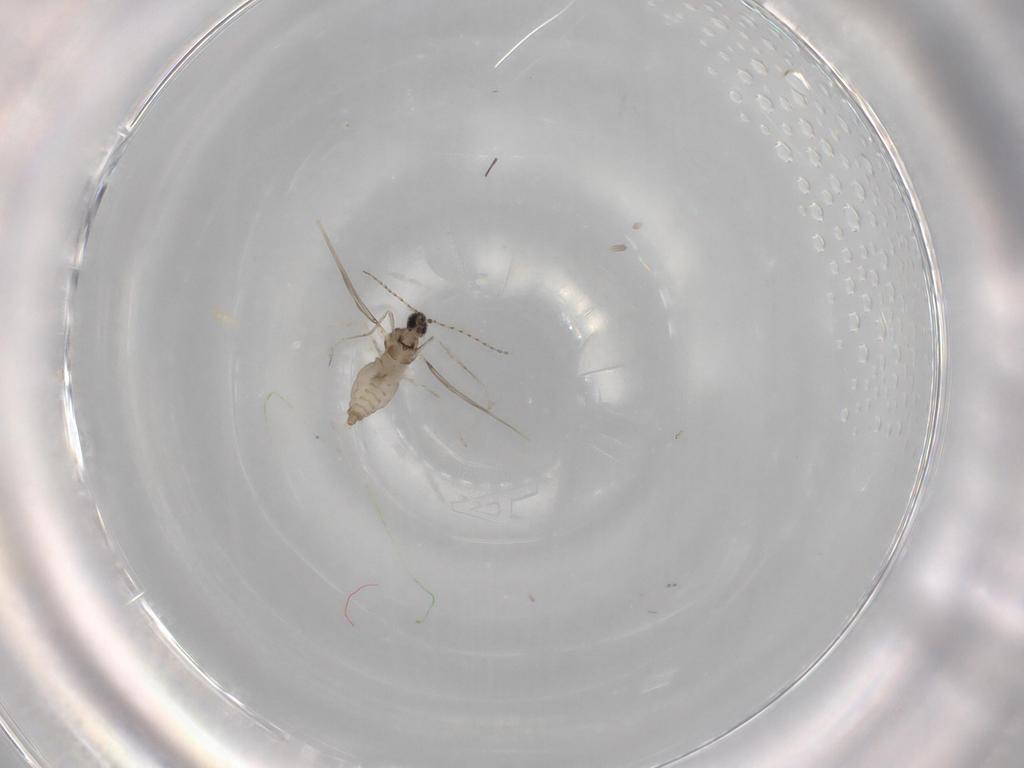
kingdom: Animalia
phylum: Arthropoda
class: Insecta
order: Diptera
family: Cecidomyiidae
